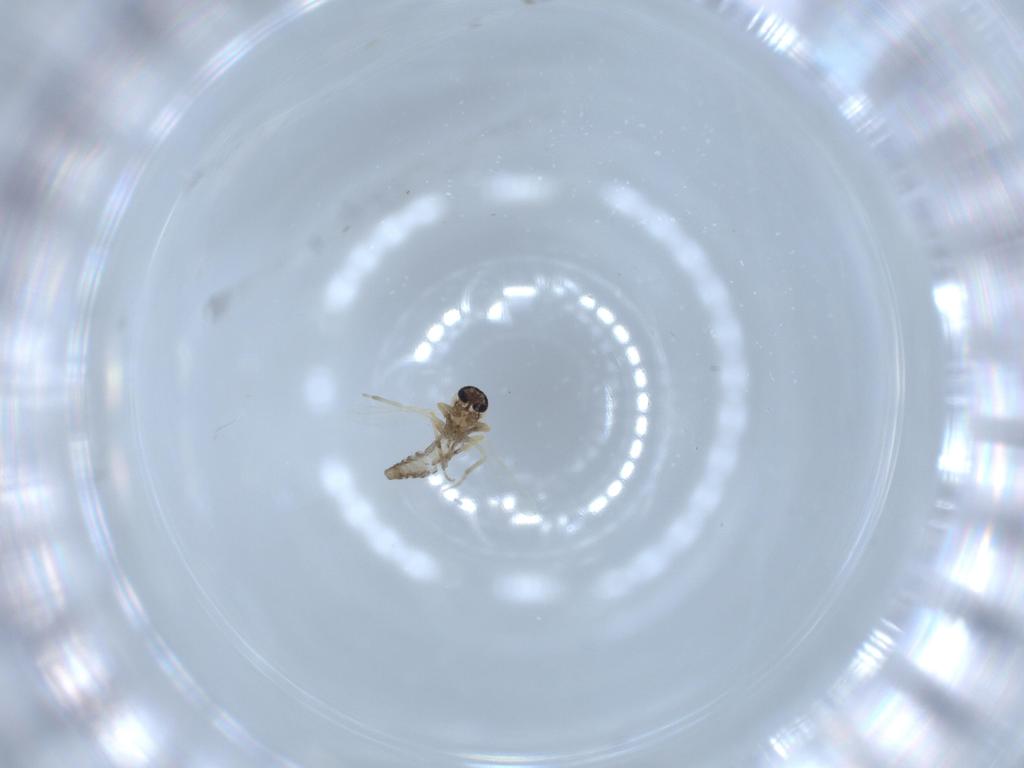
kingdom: Animalia
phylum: Arthropoda
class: Insecta
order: Diptera
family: Ceratopogonidae
